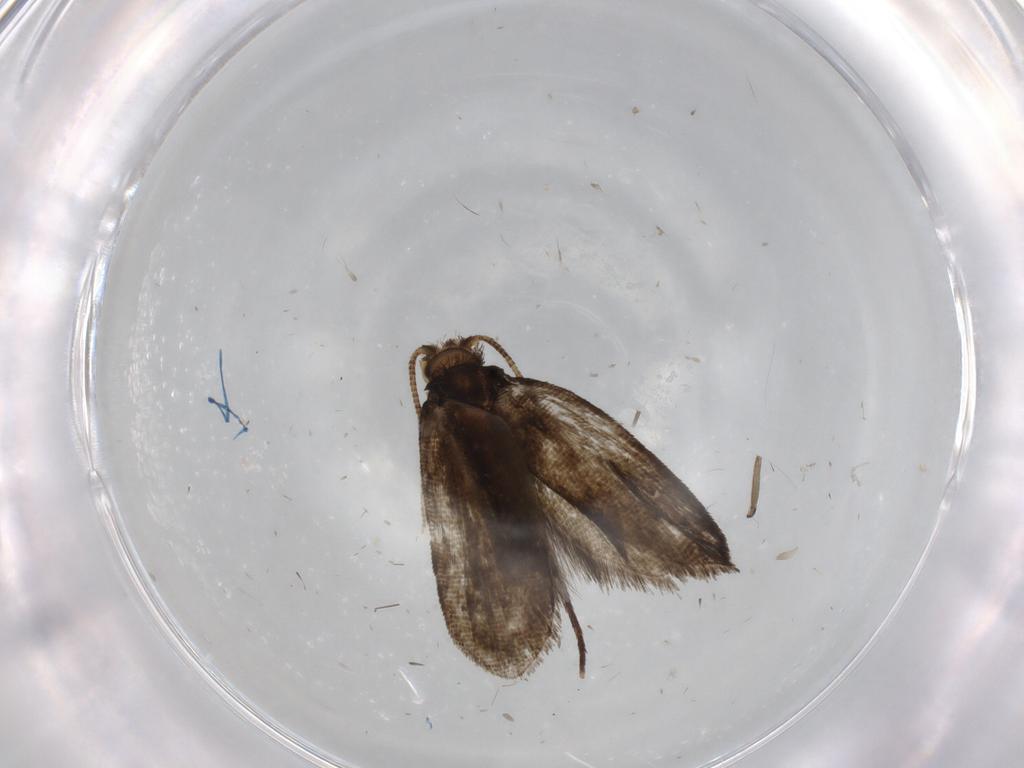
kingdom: Animalia
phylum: Arthropoda
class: Insecta
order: Lepidoptera
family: Tineidae
